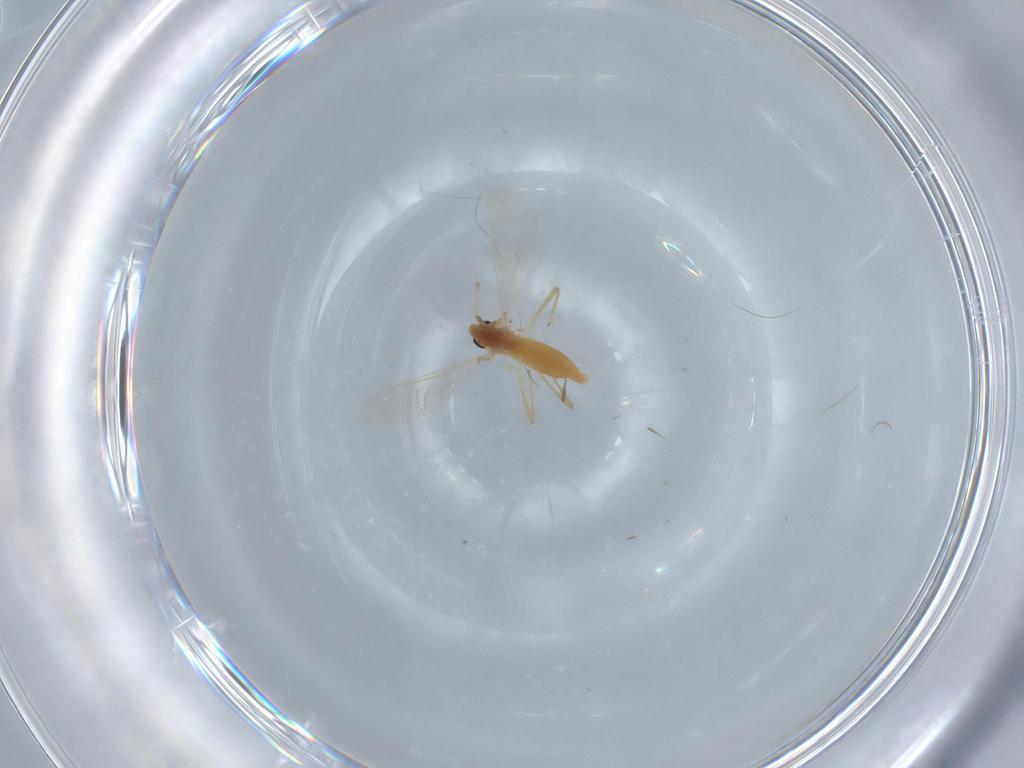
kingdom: Animalia
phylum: Arthropoda
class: Insecta
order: Diptera
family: Chironomidae
